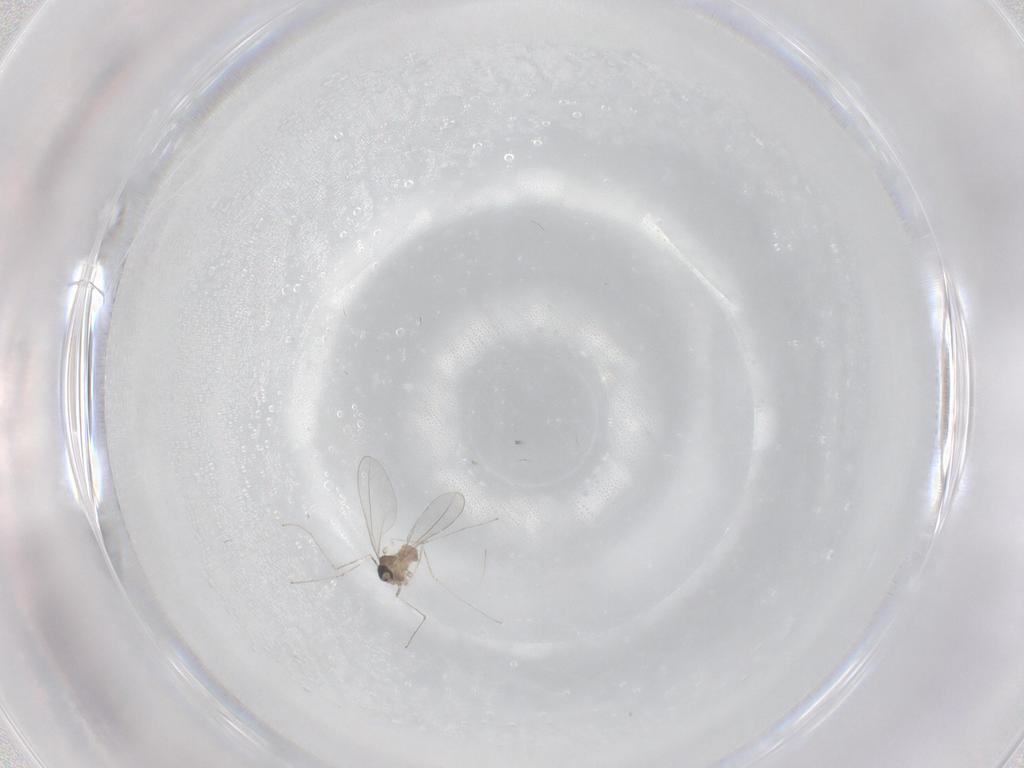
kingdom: Animalia
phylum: Arthropoda
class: Insecta
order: Diptera
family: Cecidomyiidae
